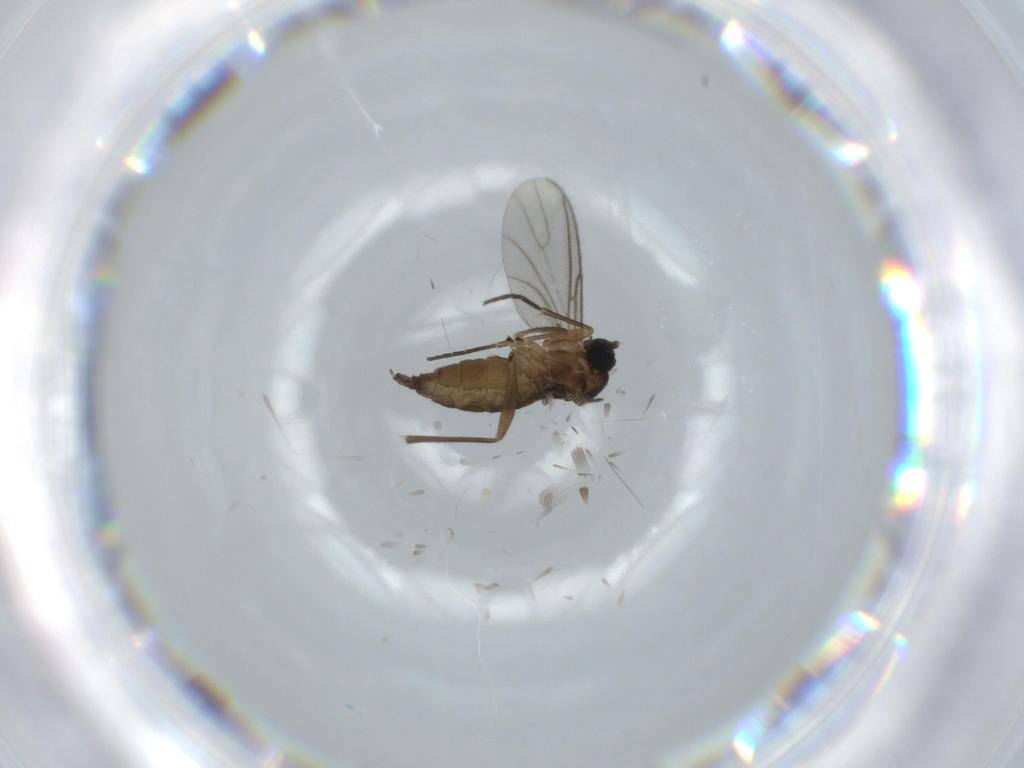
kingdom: Animalia
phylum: Arthropoda
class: Insecta
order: Diptera
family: Sciaridae
